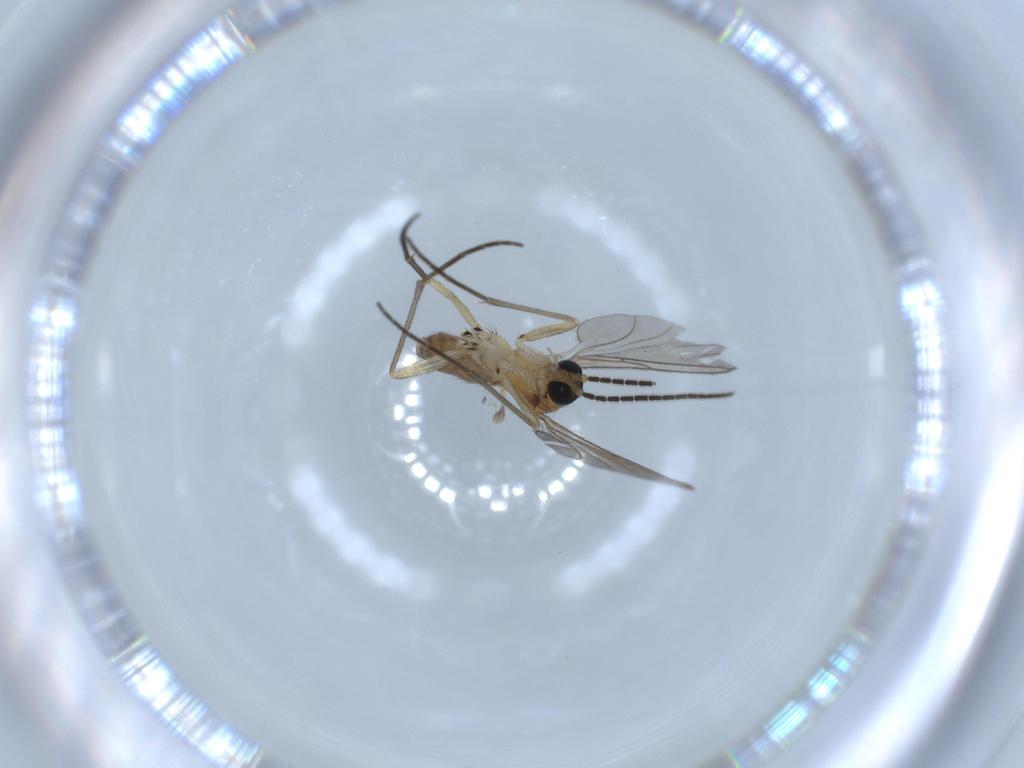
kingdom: Animalia
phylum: Arthropoda
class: Insecta
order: Diptera
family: Sciaridae
